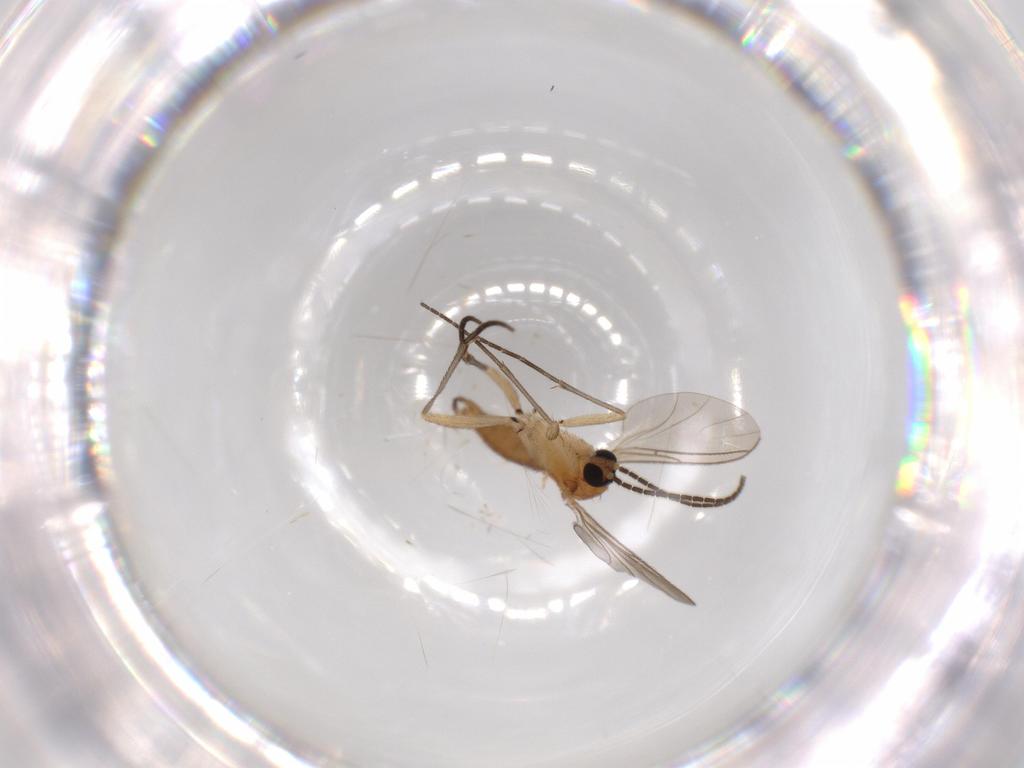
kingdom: Animalia
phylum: Arthropoda
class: Insecta
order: Diptera
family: Sciaridae
